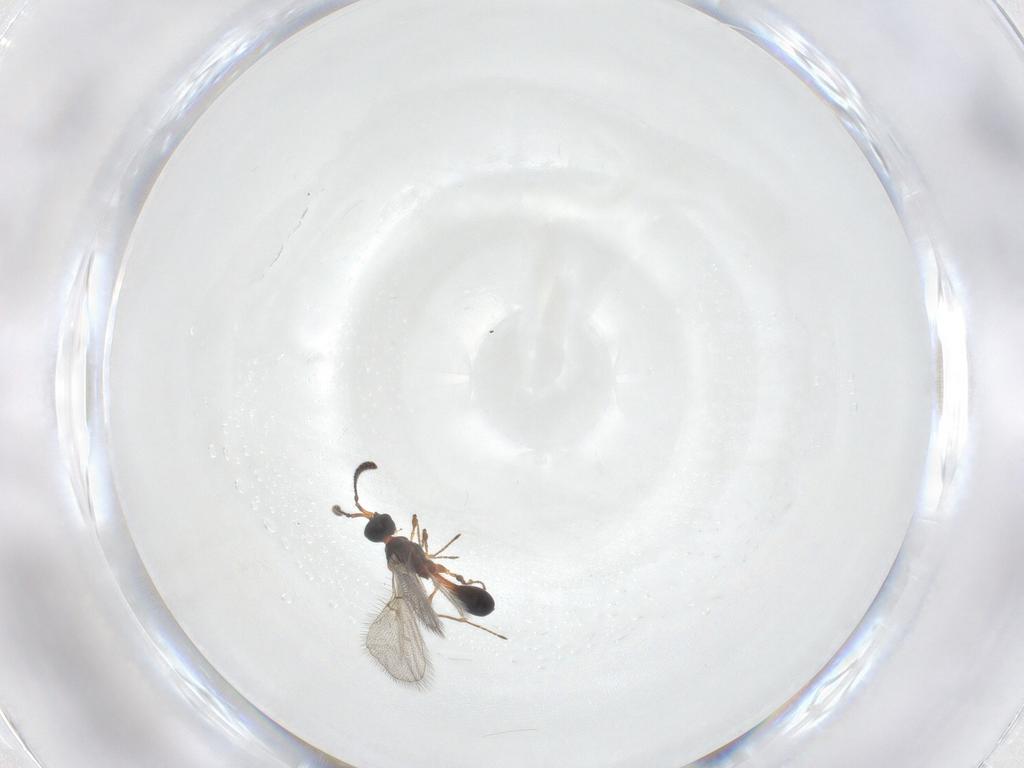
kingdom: Animalia
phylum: Arthropoda
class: Insecta
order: Hymenoptera
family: Diapriidae
